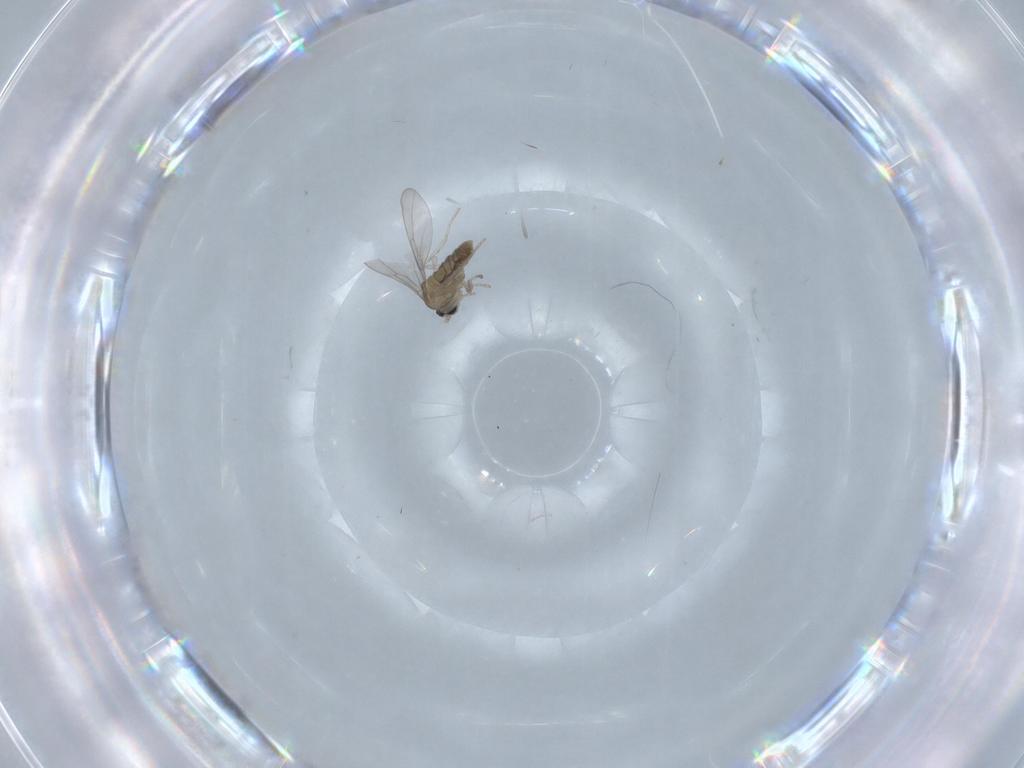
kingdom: Animalia
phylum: Arthropoda
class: Insecta
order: Diptera
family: Cecidomyiidae
